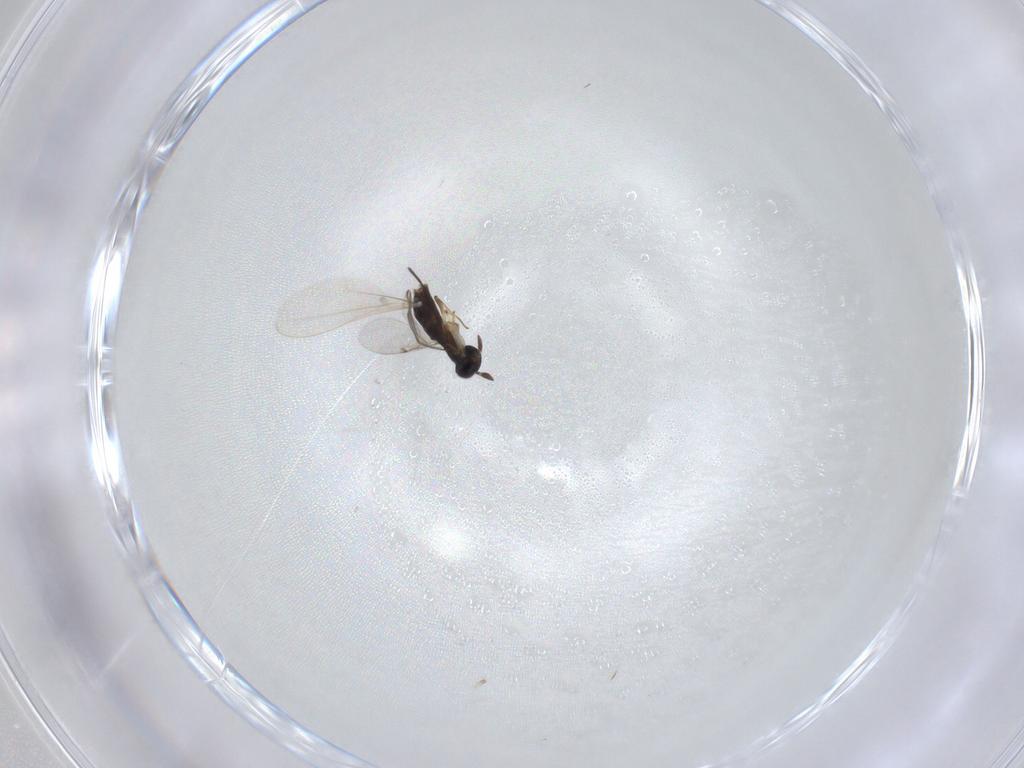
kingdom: Animalia
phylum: Arthropoda
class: Insecta
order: Hymenoptera
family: Encyrtidae
